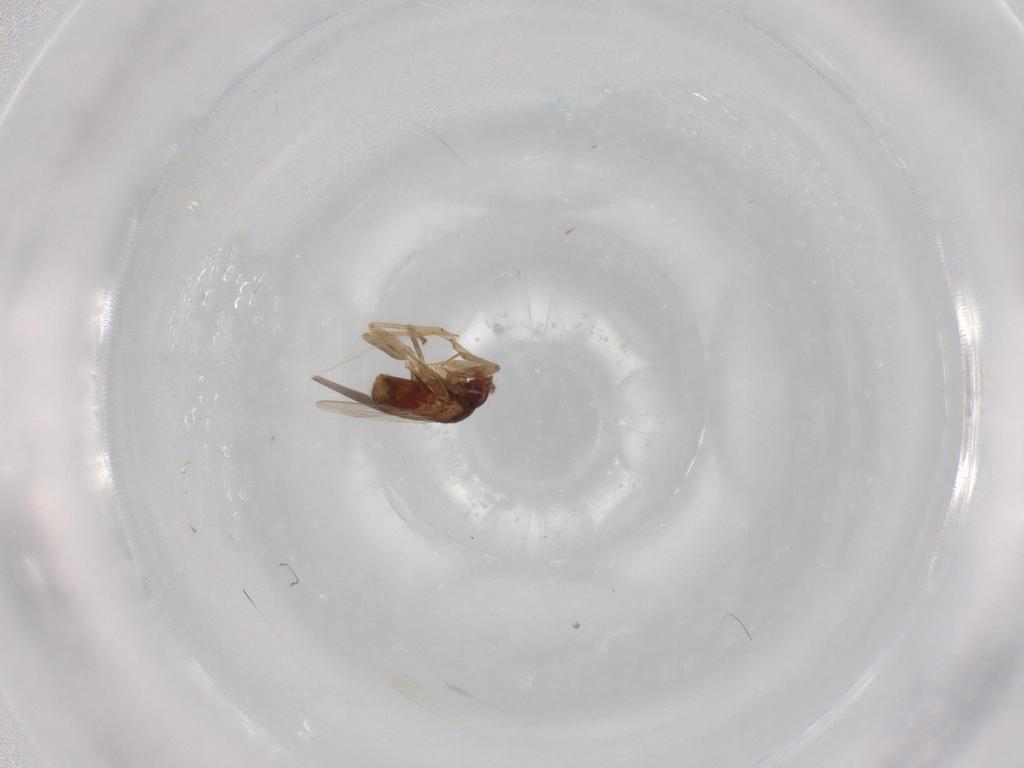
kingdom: Animalia
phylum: Arthropoda
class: Insecta
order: Hemiptera
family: Ceratocombidae
